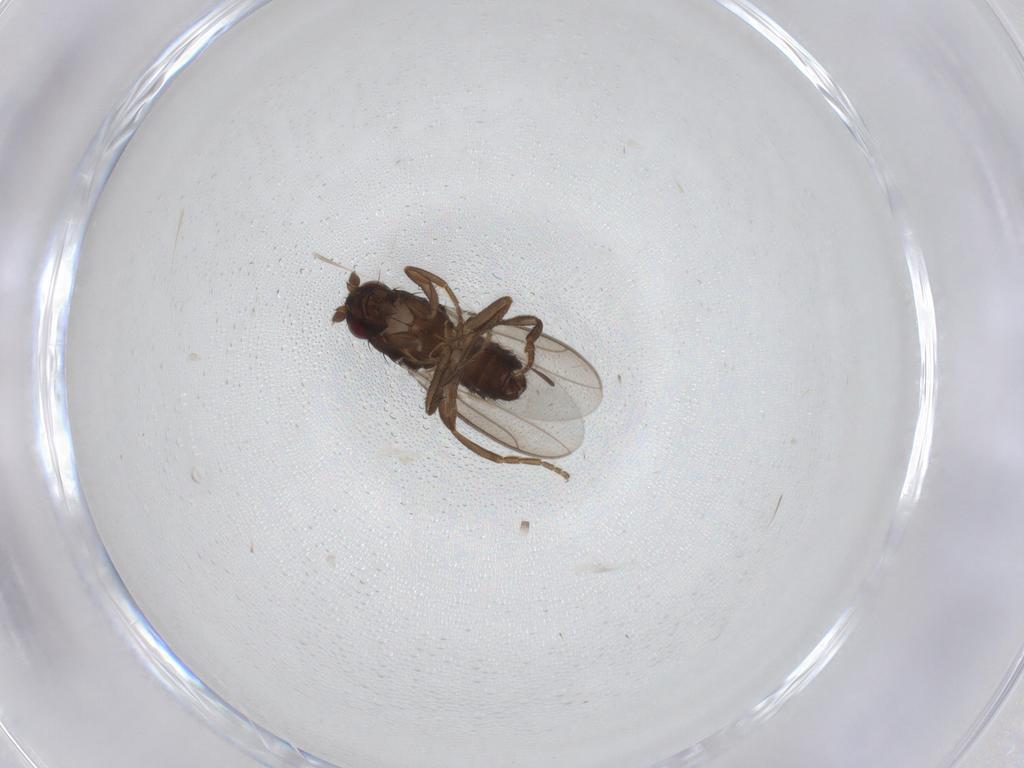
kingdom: Animalia
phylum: Arthropoda
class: Insecta
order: Diptera
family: Sphaeroceridae
